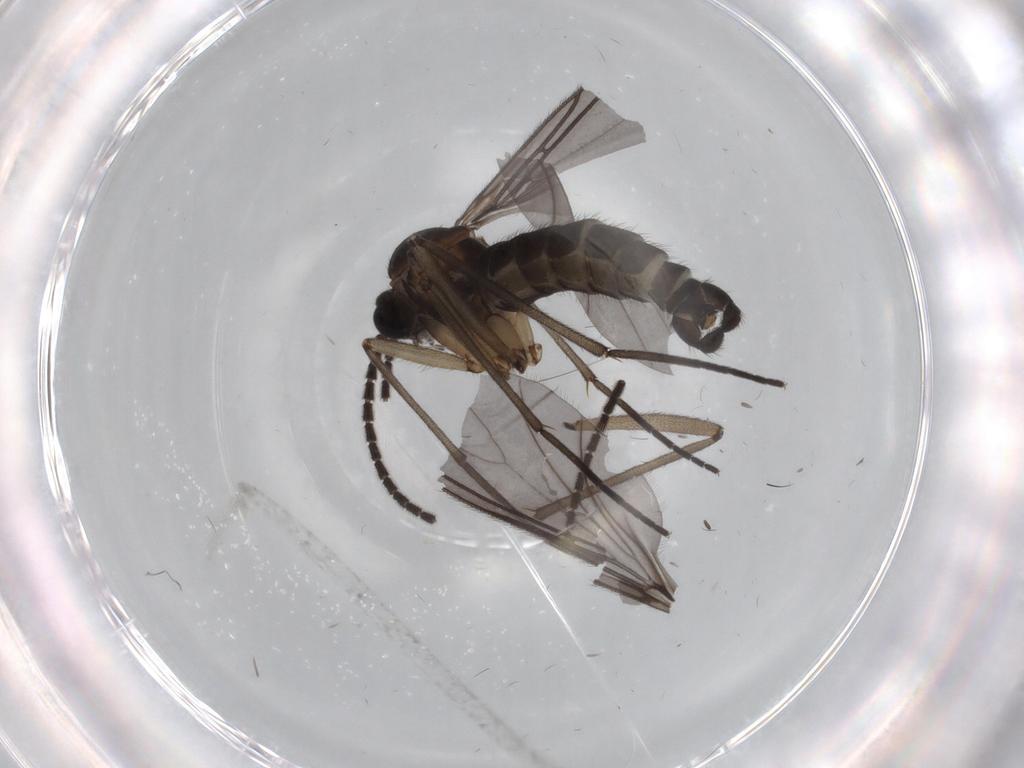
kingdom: Animalia
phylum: Arthropoda
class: Insecta
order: Diptera
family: Sciaridae
